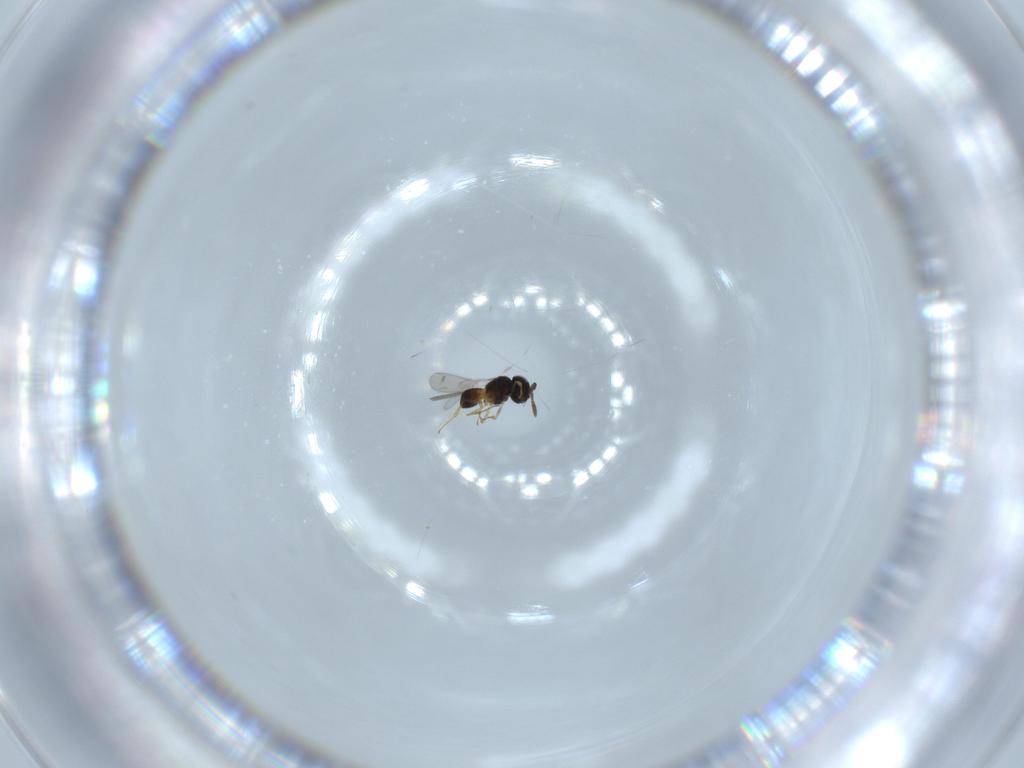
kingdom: Animalia
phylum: Arthropoda
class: Insecta
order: Hymenoptera
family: Scelionidae
